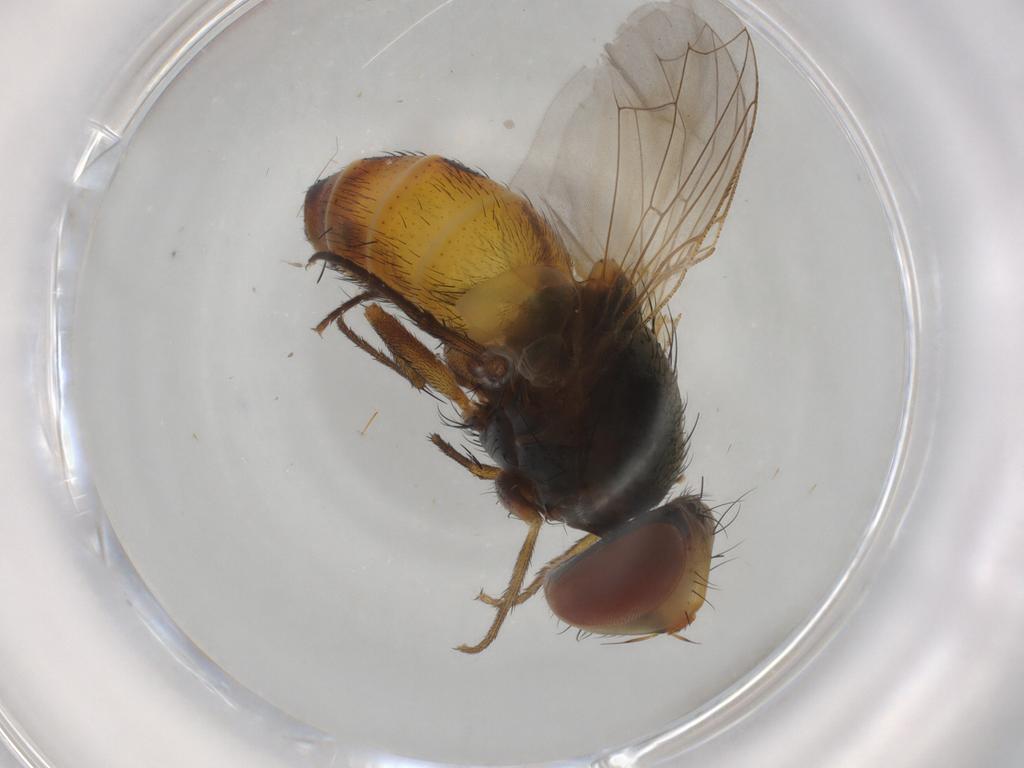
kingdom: Animalia
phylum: Arthropoda
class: Insecta
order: Diptera
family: Sarcophagidae
